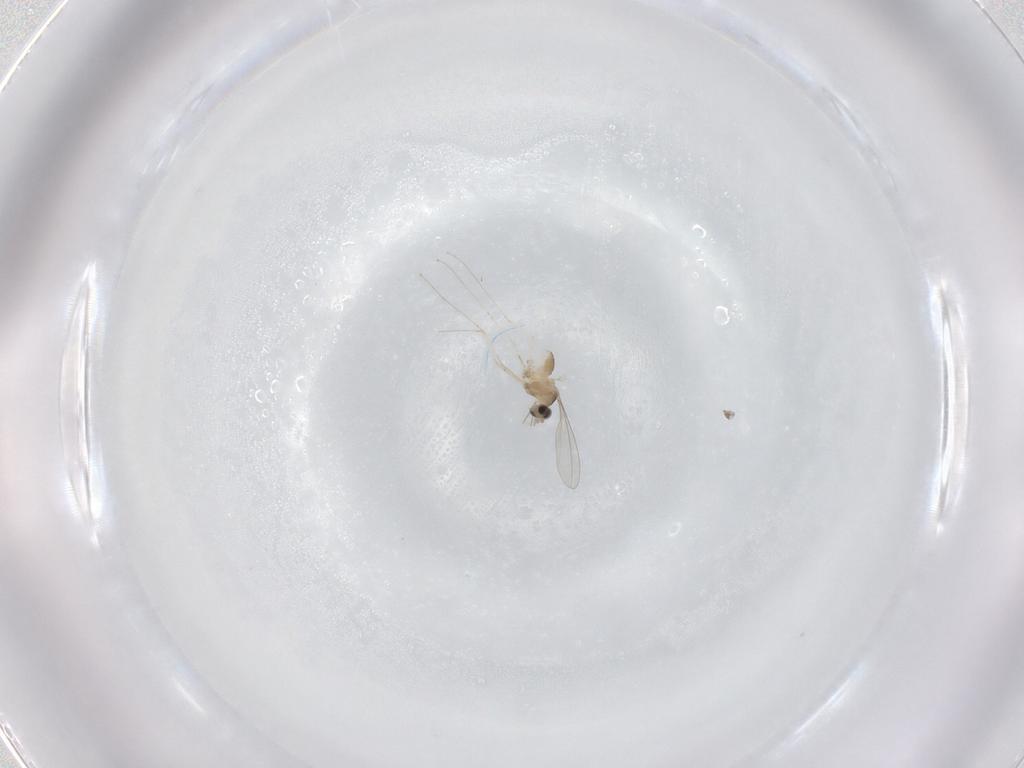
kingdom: Animalia
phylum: Arthropoda
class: Insecta
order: Diptera
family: Cecidomyiidae
